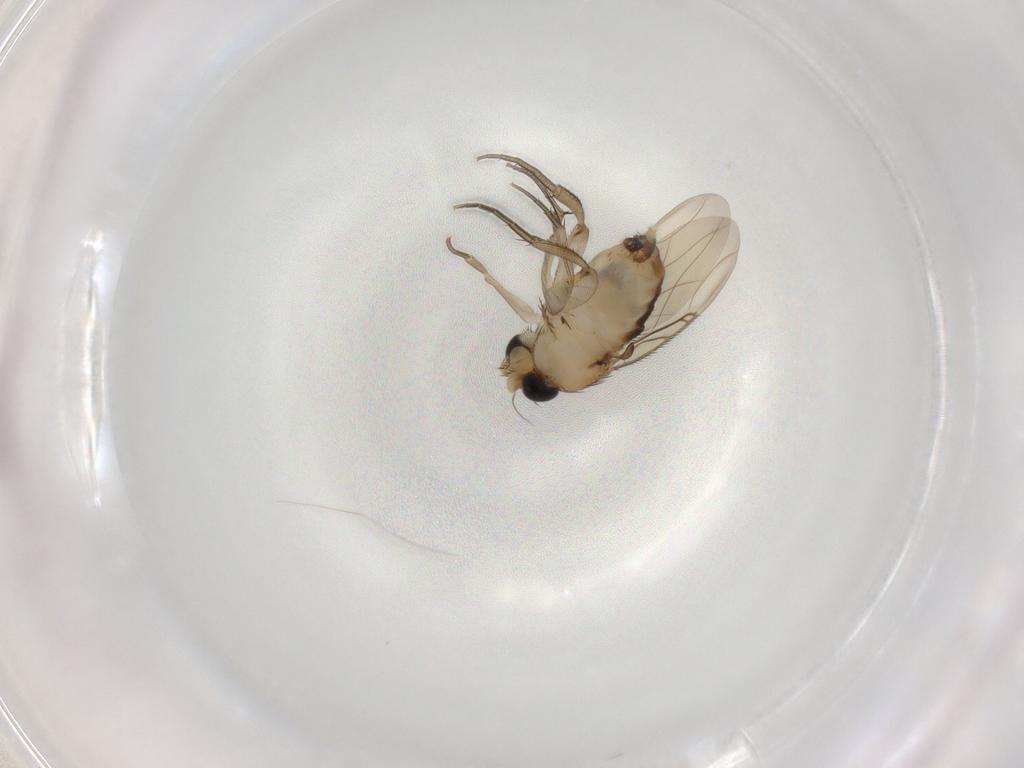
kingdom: Animalia
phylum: Arthropoda
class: Insecta
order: Diptera
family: Phoridae
